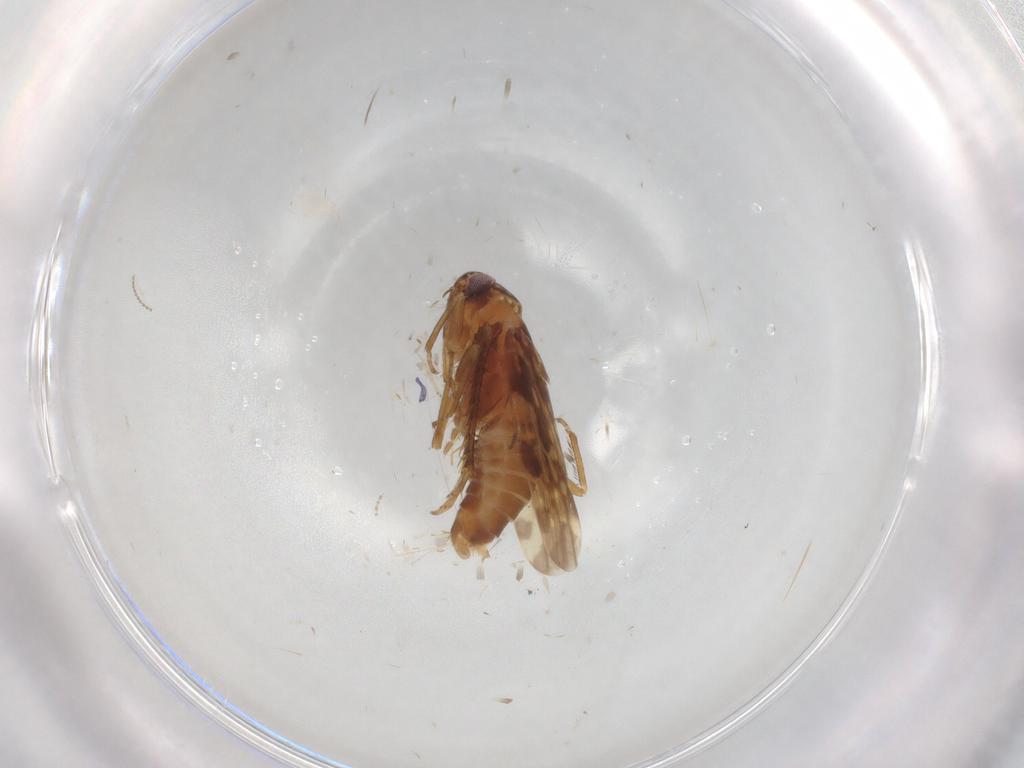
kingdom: Animalia
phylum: Arthropoda
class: Insecta
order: Hemiptera
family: Cicadellidae
